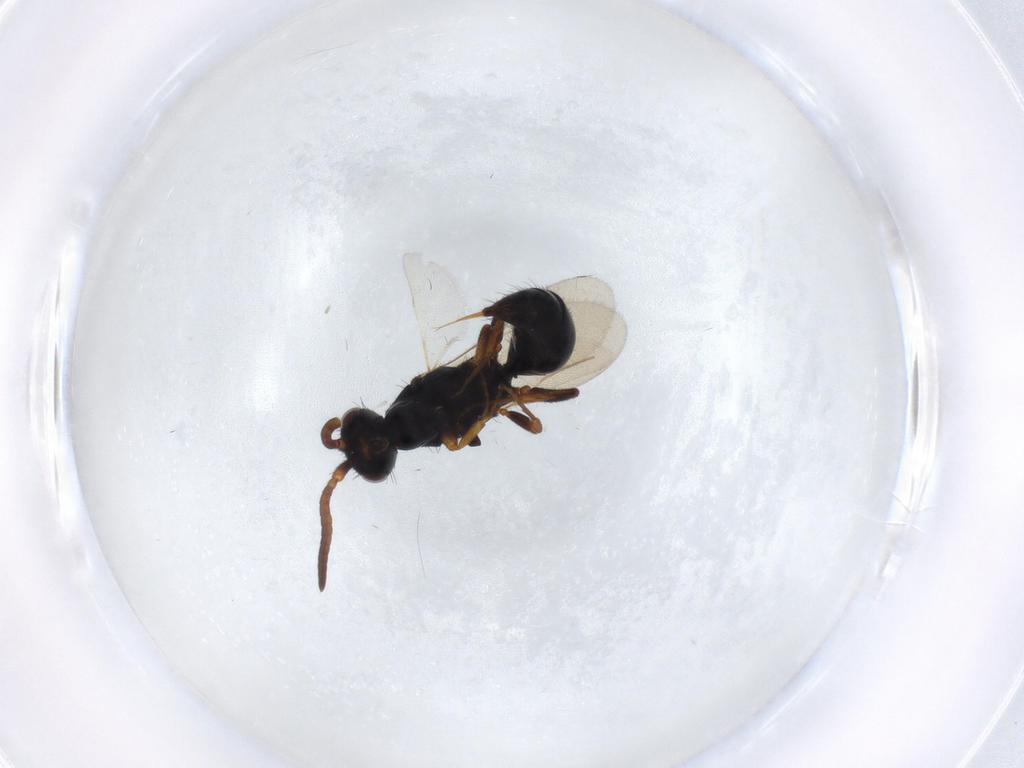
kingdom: Animalia
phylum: Arthropoda
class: Insecta
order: Hymenoptera
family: Bethylidae
